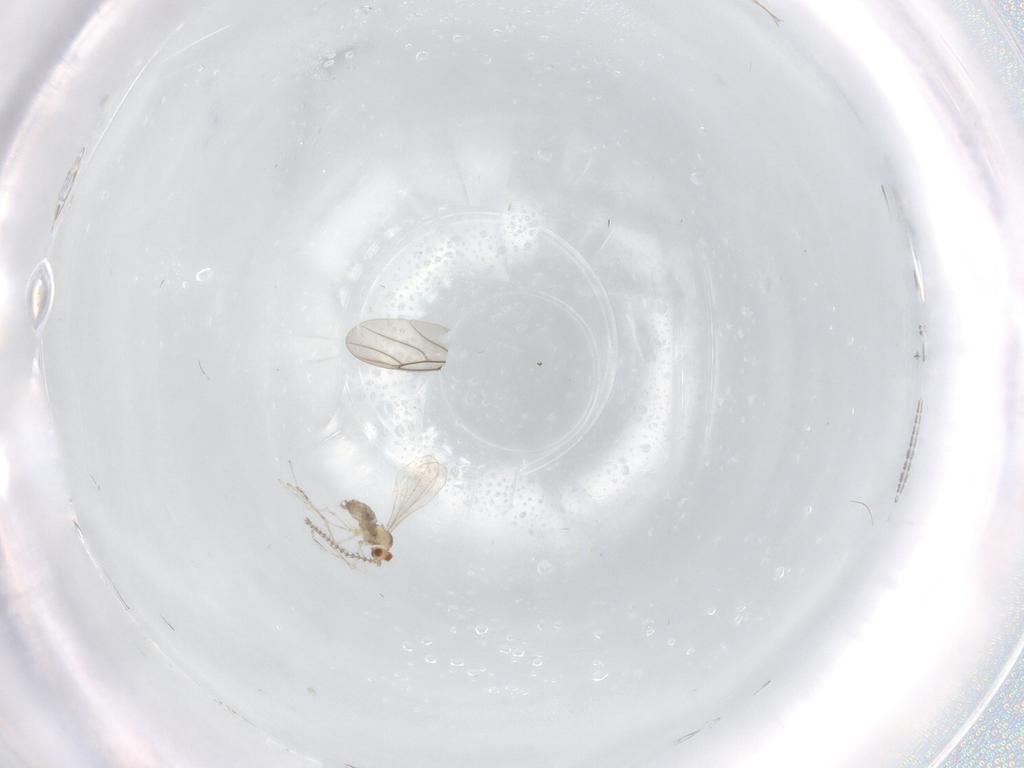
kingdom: Animalia
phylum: Arthropoda
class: Insecta
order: Diptera
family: Cecidomyiidae
